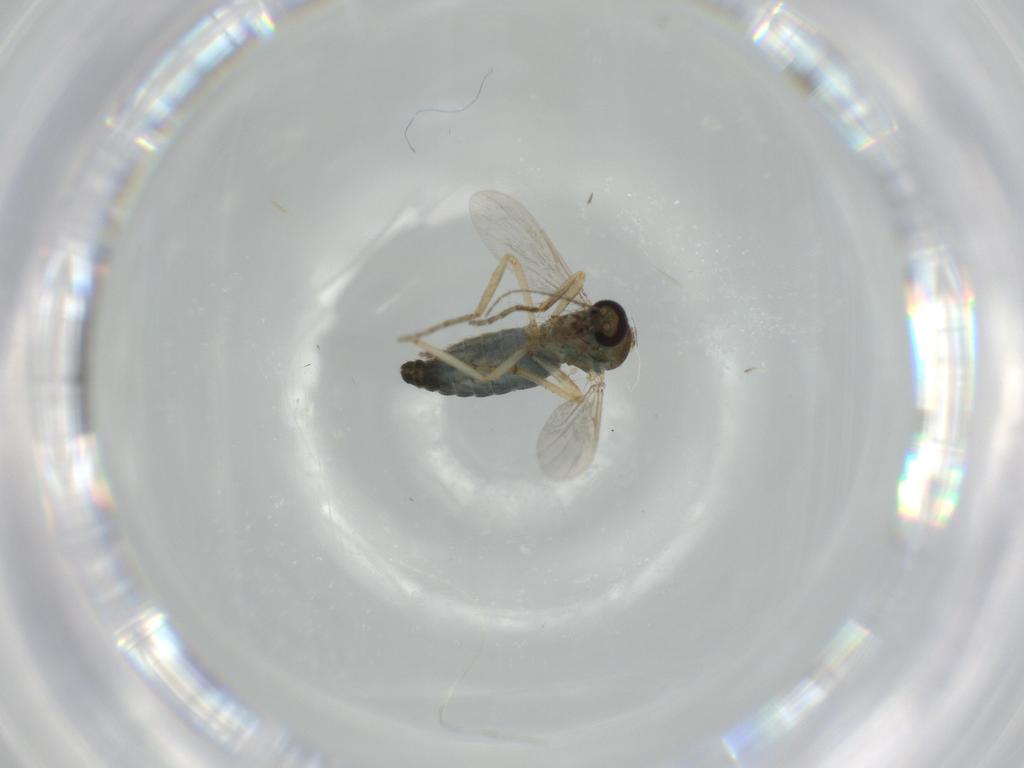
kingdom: Animalia
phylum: Arthropoda
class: Insecta
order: Diptera
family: Ceratopogonidae
